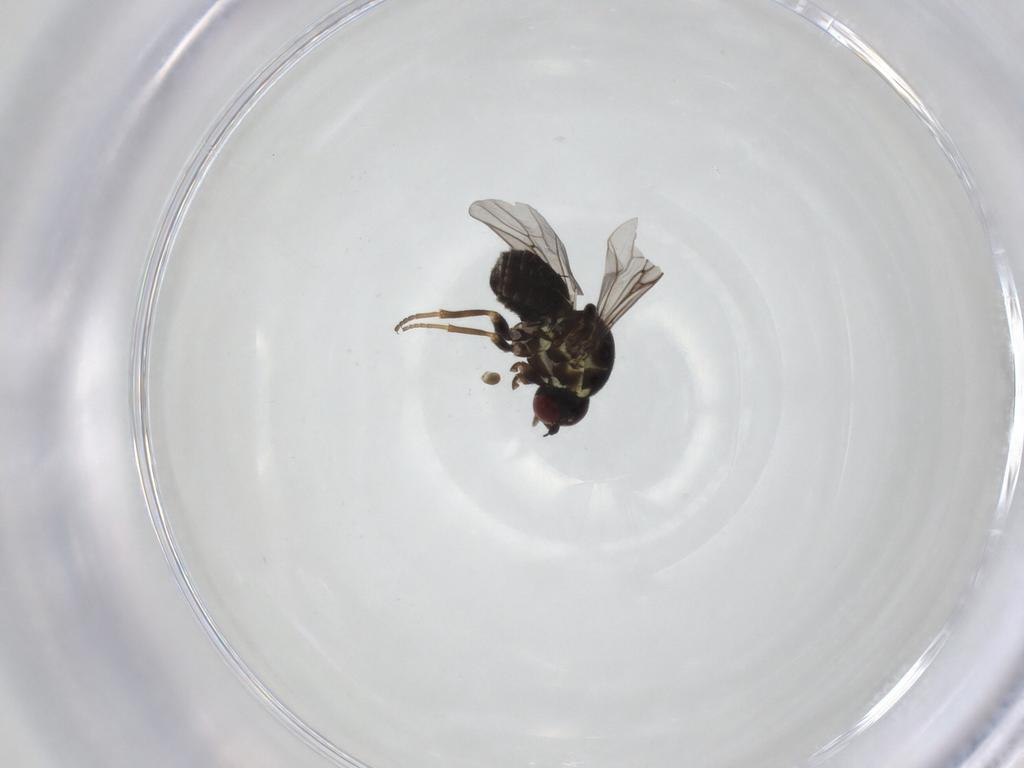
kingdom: Animalia
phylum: Arthropoda
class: Insecta
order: Diptera
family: Bombyliidae
